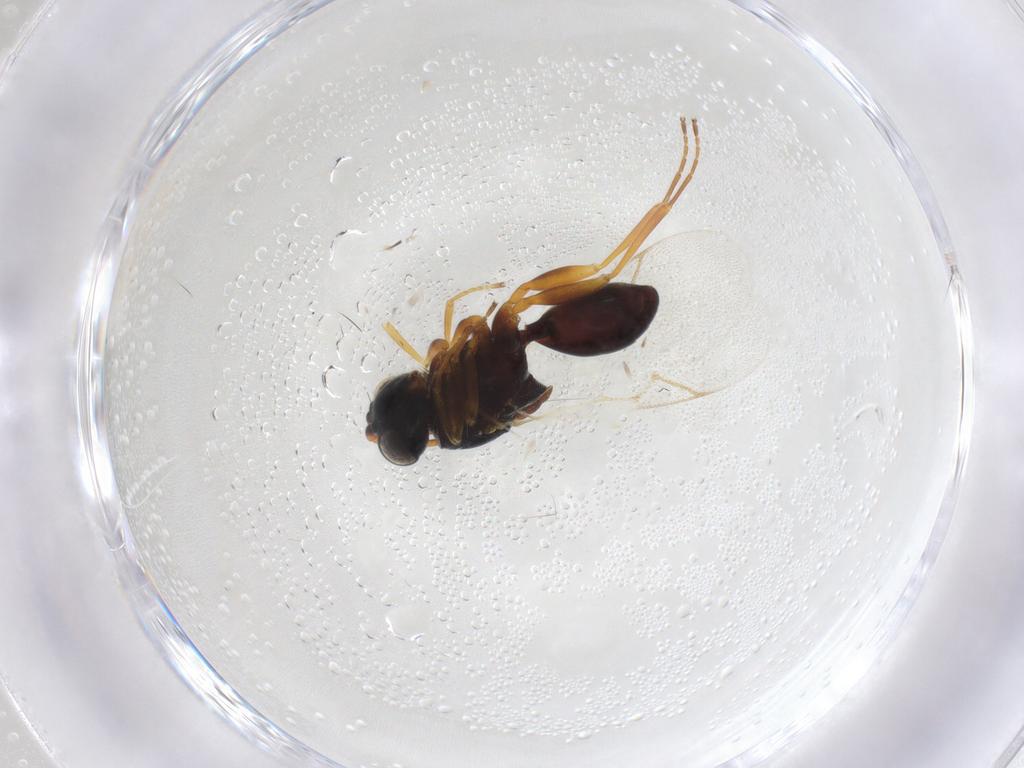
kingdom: Animalia
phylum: Arthropoda
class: Insecta
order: Hymenoptera
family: Figitidae
